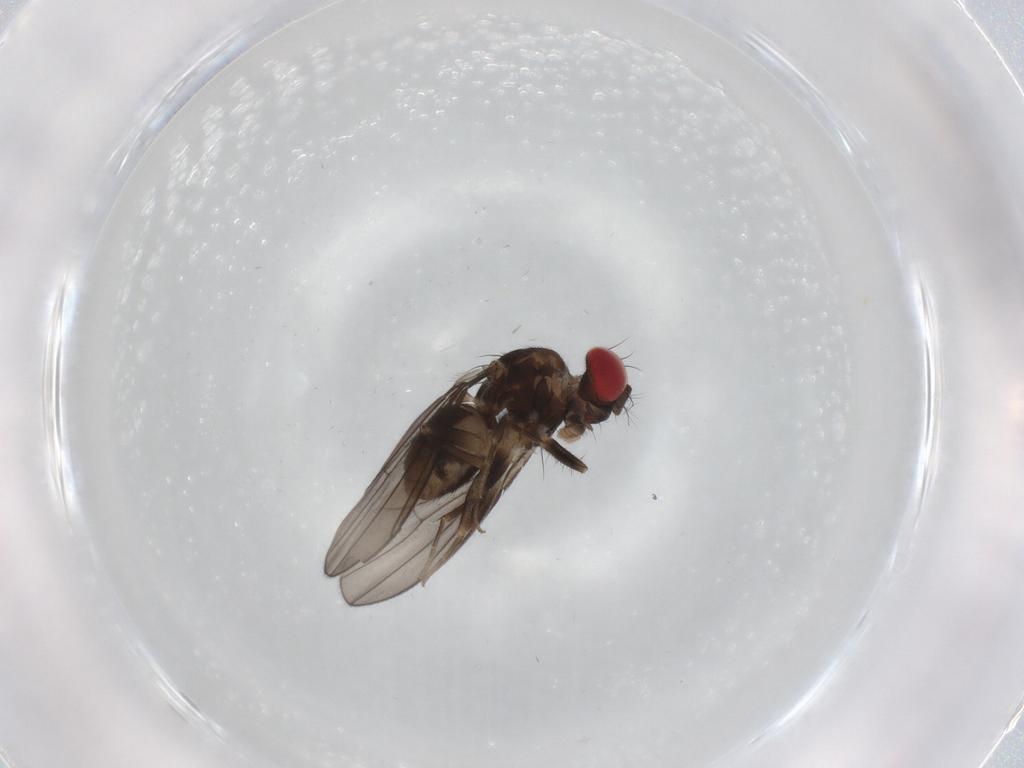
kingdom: Animalia
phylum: Arthropoda
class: Insecta
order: Diptera
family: Drosophilidae
